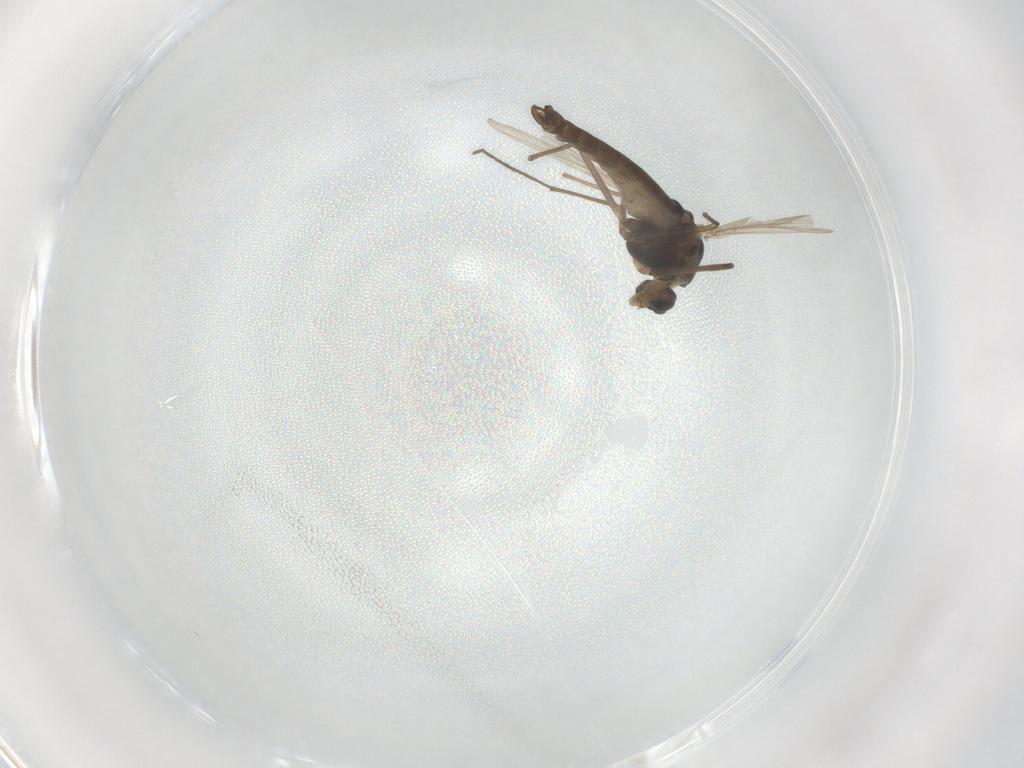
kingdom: Animalia
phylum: Arthropoda
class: Insecta
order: Diptera
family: Chironomidae
